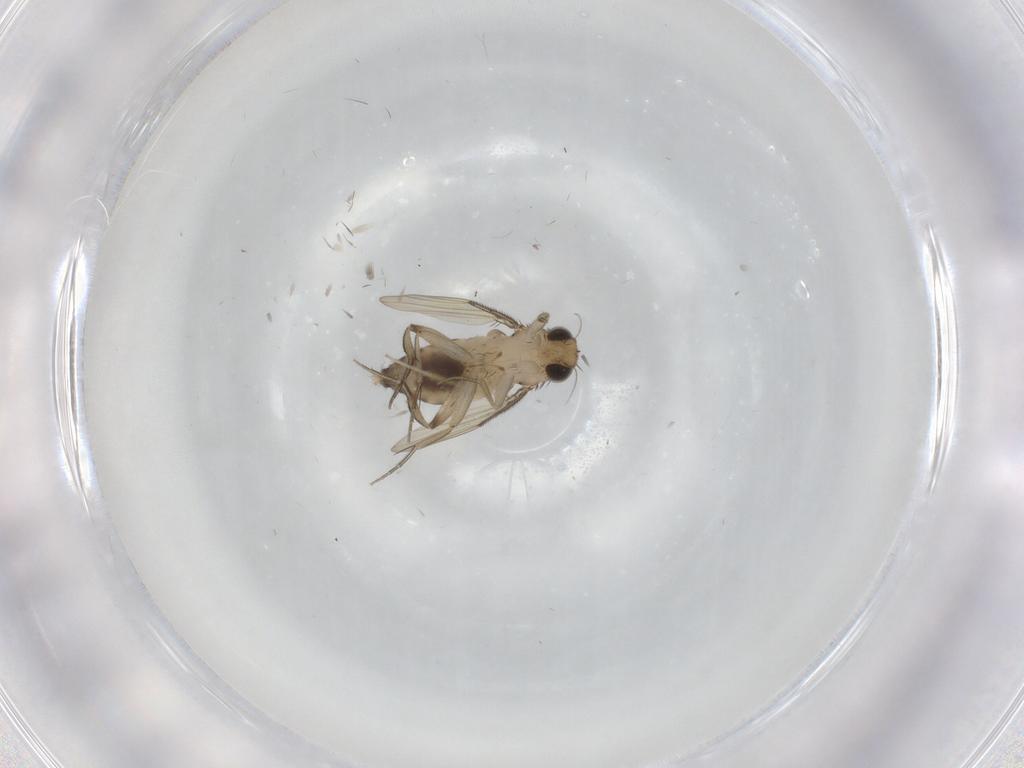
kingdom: Animalia
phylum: Arthropoda
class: Insecta
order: Diptera
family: Phoridae
